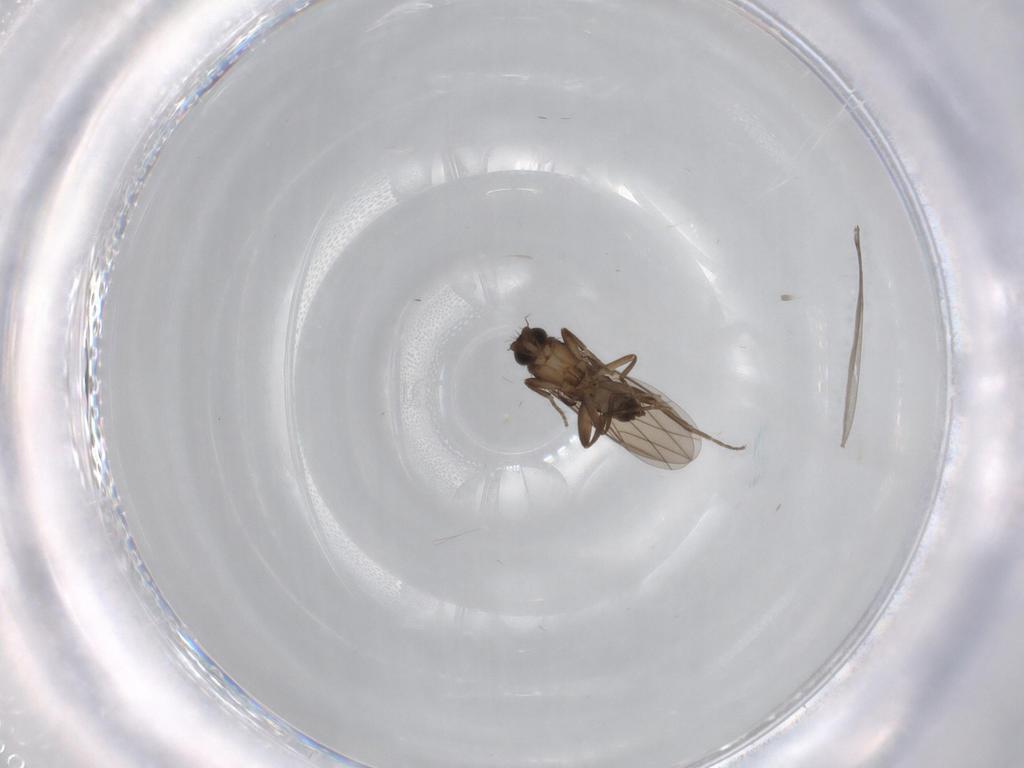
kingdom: Animalia
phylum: Arthropoda
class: Insecta
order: Diptera
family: Phoridae
